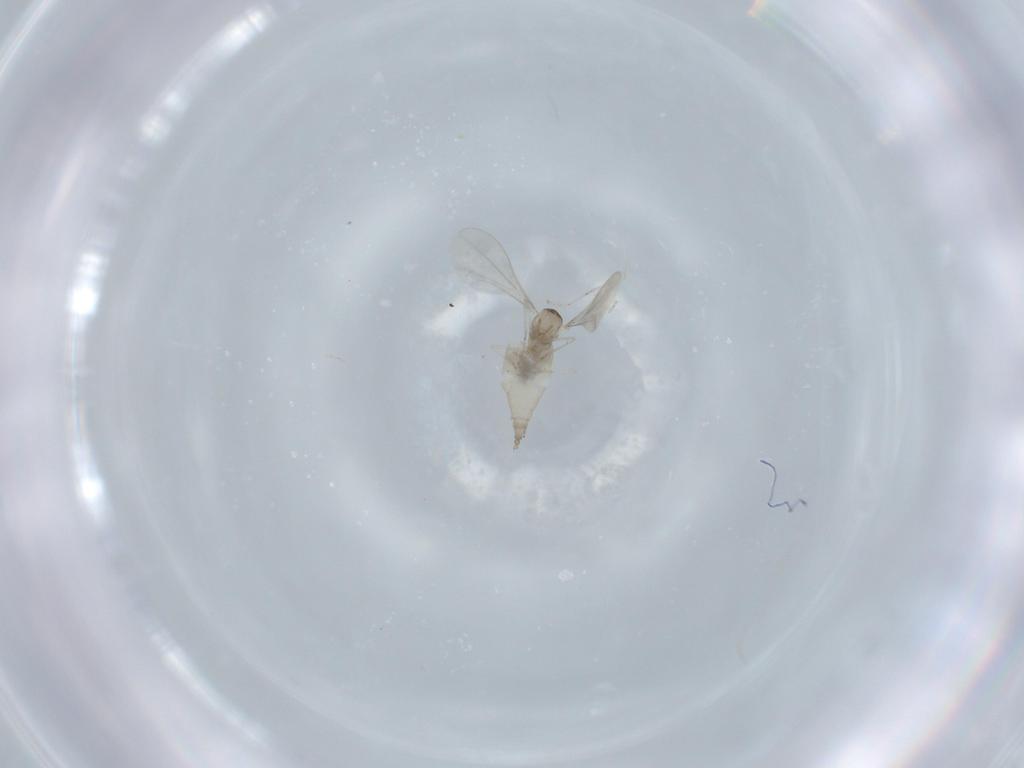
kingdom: Animalia
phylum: Arthropoda
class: Insecta
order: Diptera
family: Cecidomyiidae
